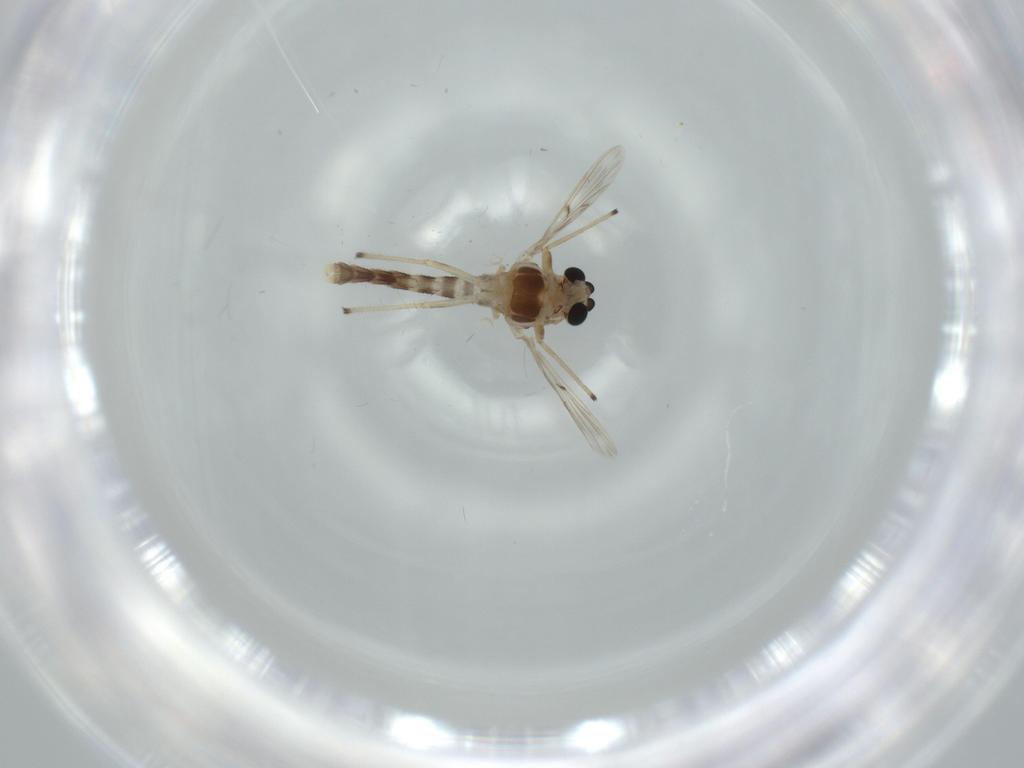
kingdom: Animalia
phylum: Arthropoda
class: Insecta
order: Diptera
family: Chironomidae
